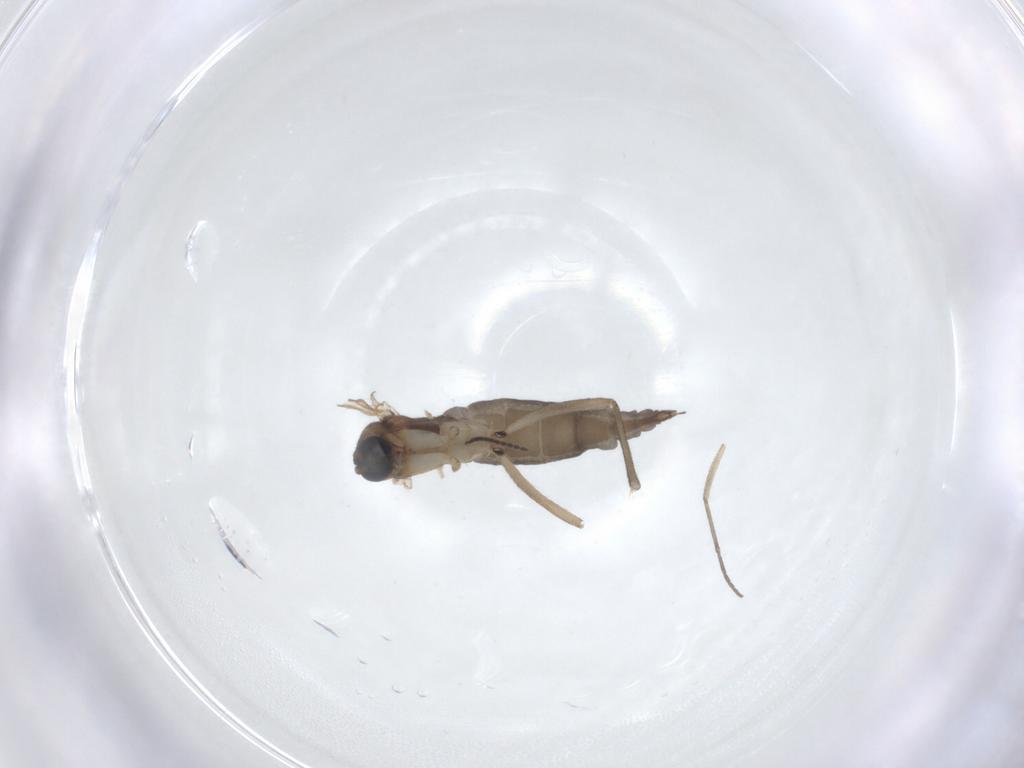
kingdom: Animalia
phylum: Arthropoda
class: Insecta
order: Diptera
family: Sciaridae
